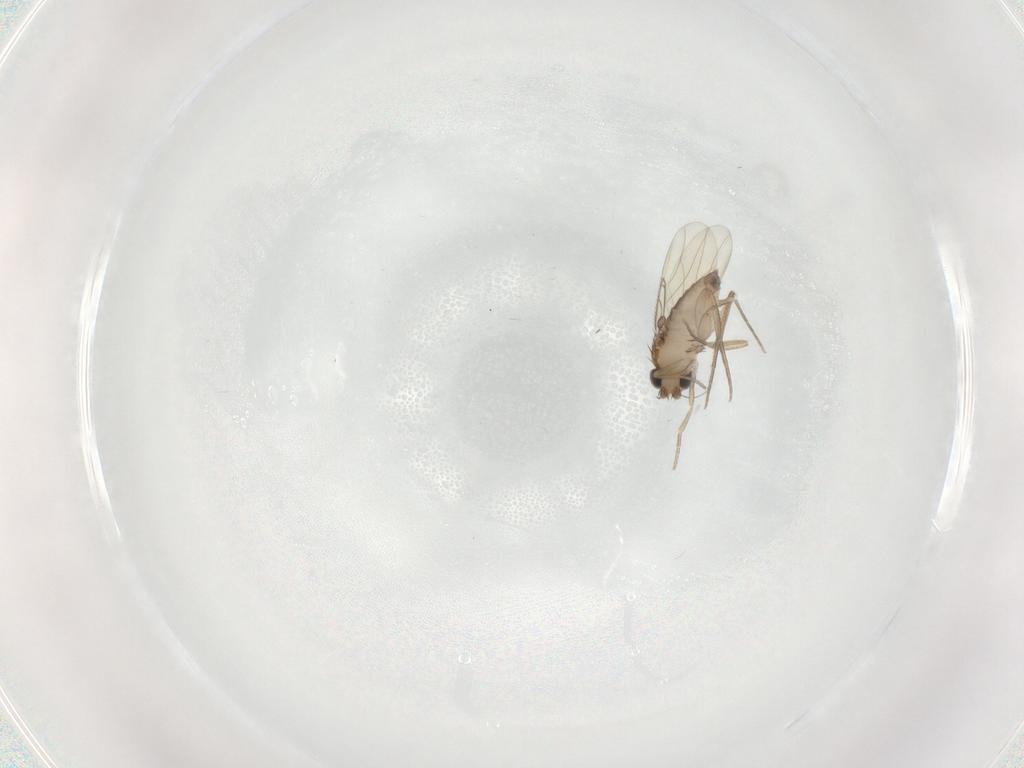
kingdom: Animalia
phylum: Arthropoda
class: Insecta
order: Diptera
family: Phoridae
